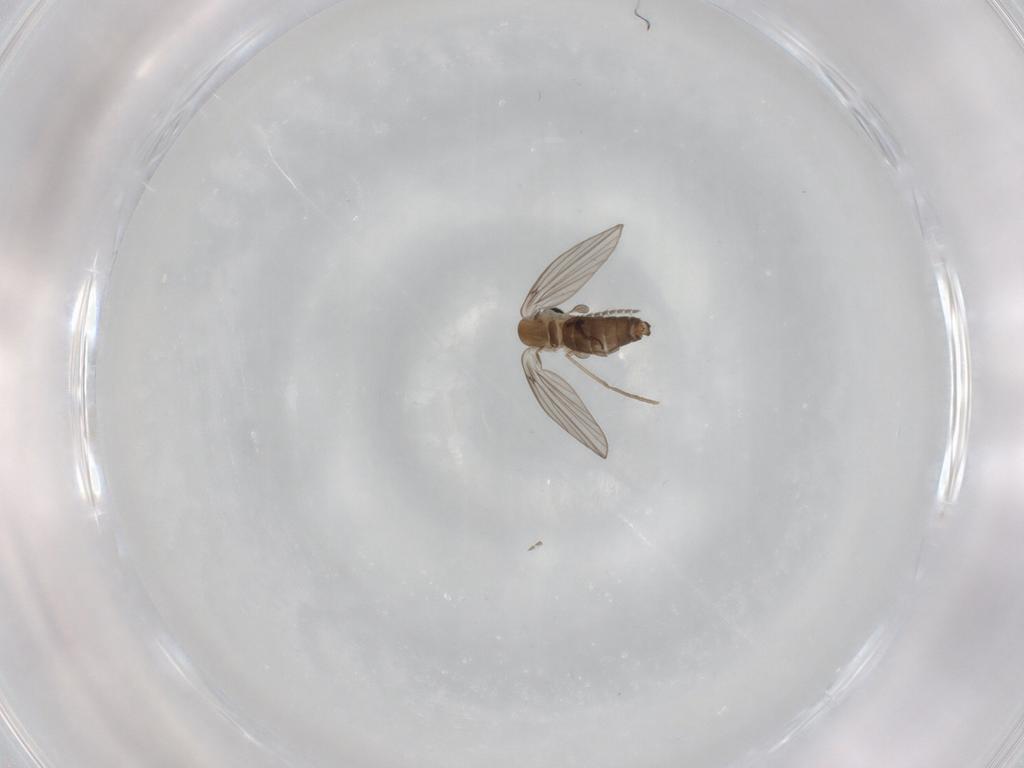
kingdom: Animalia
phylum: Arthropoda
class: Insecta
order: Diptera
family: Psychodidae
